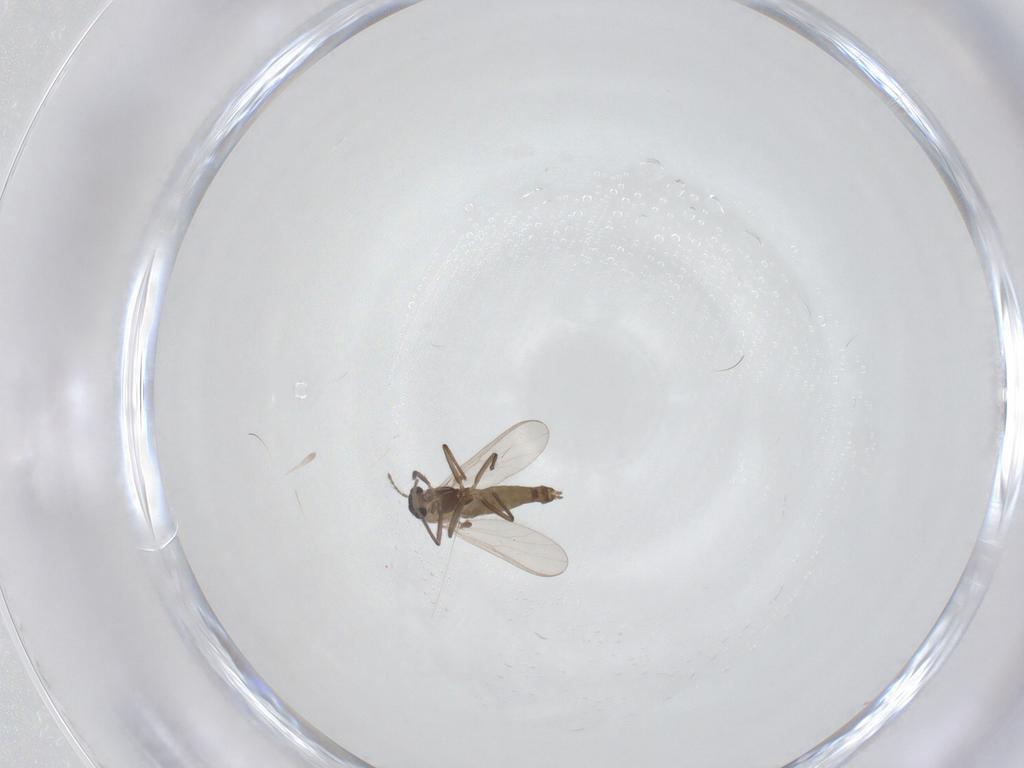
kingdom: Animalia
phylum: Arthropoda
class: Insecta
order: Diptera
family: Chironomidae
